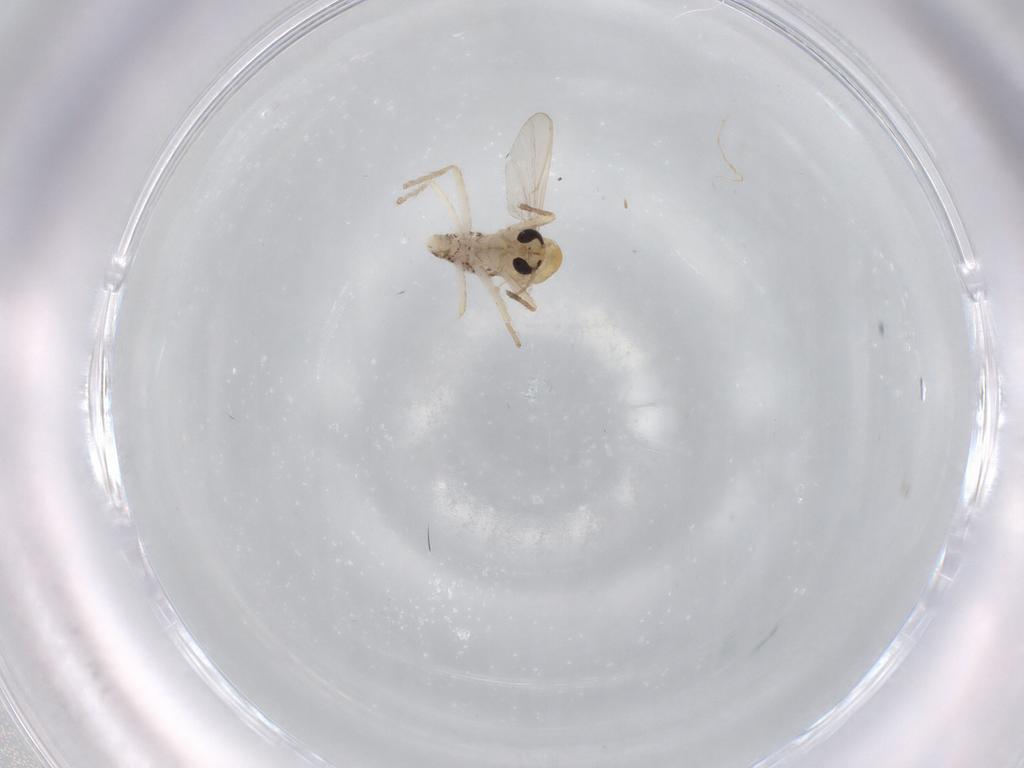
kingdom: Animalia
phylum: Arthropoda
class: Insecta
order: Diptera
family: Chironomidae
